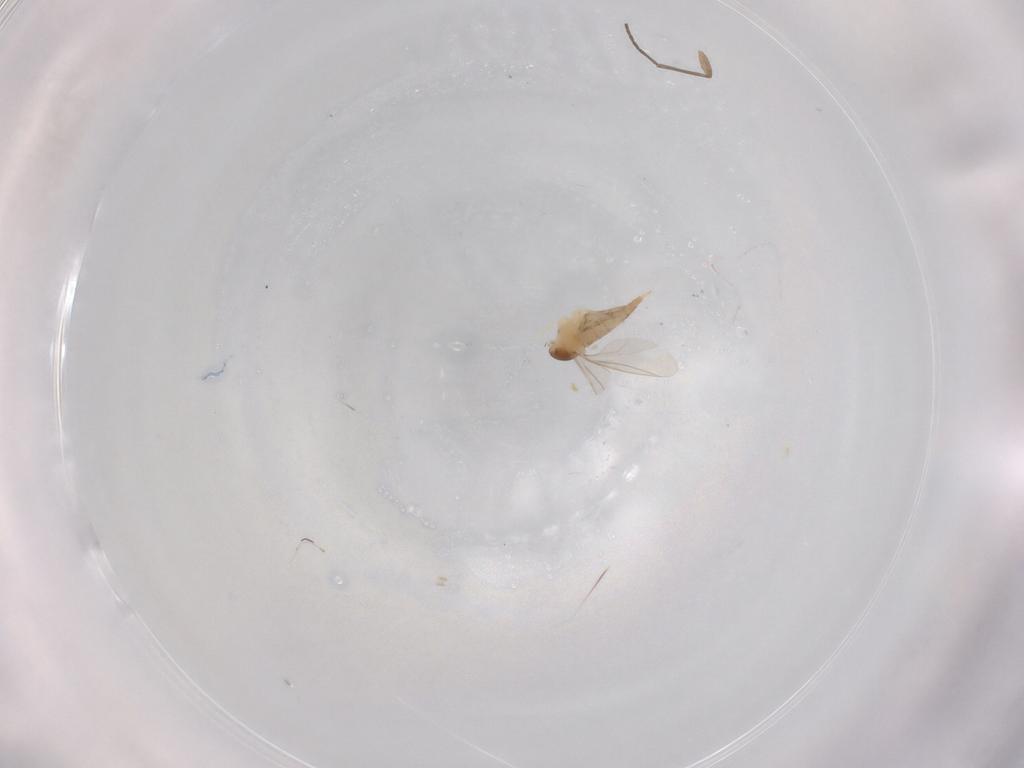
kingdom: Animalia
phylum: Arthropoda
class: Insecta
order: Diptera
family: Cecidomyiidae
